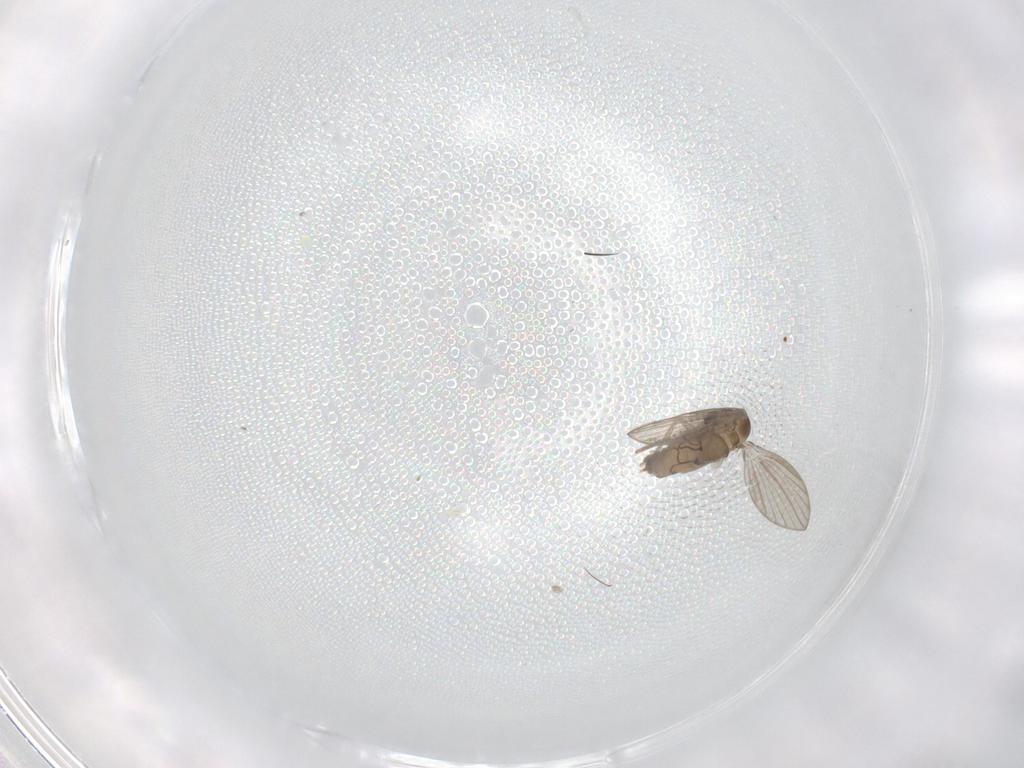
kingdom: Animalia
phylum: Arthropoda
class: Insecta
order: Diptera
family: Psychodidae
